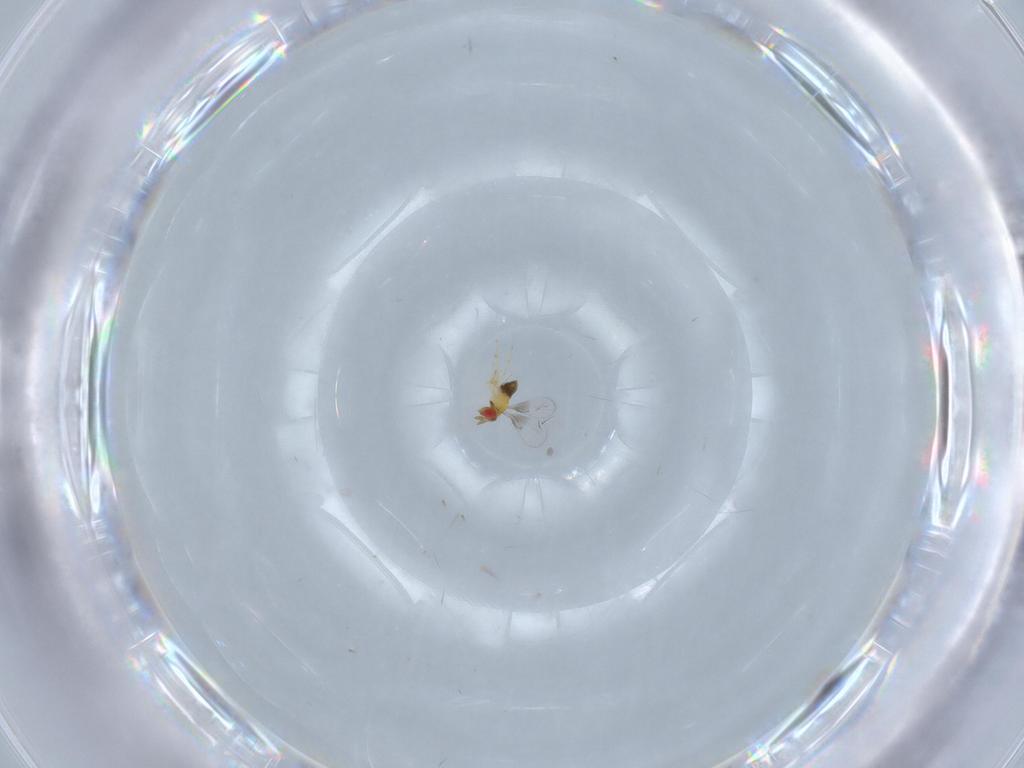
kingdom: Animalia
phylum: Arthropoda
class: Insecta
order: Hymenoptera
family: Trichogrammatidae
